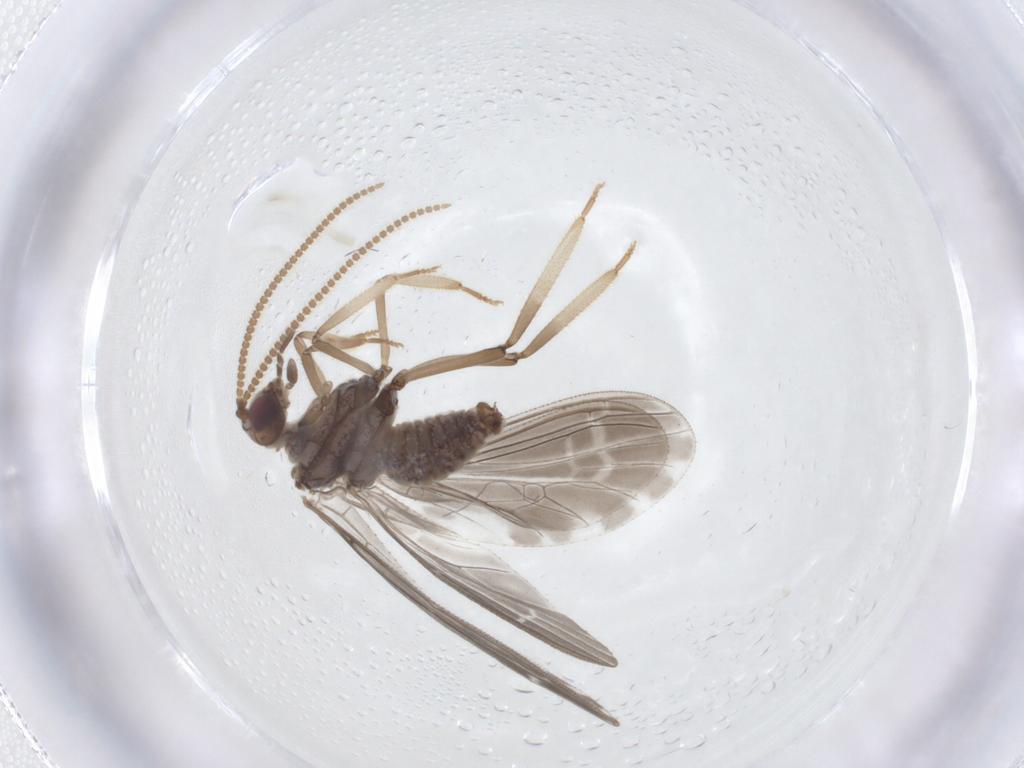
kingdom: Animalia
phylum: Arthropoda
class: Insecta
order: Neuroptera
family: Coniopterygidae
